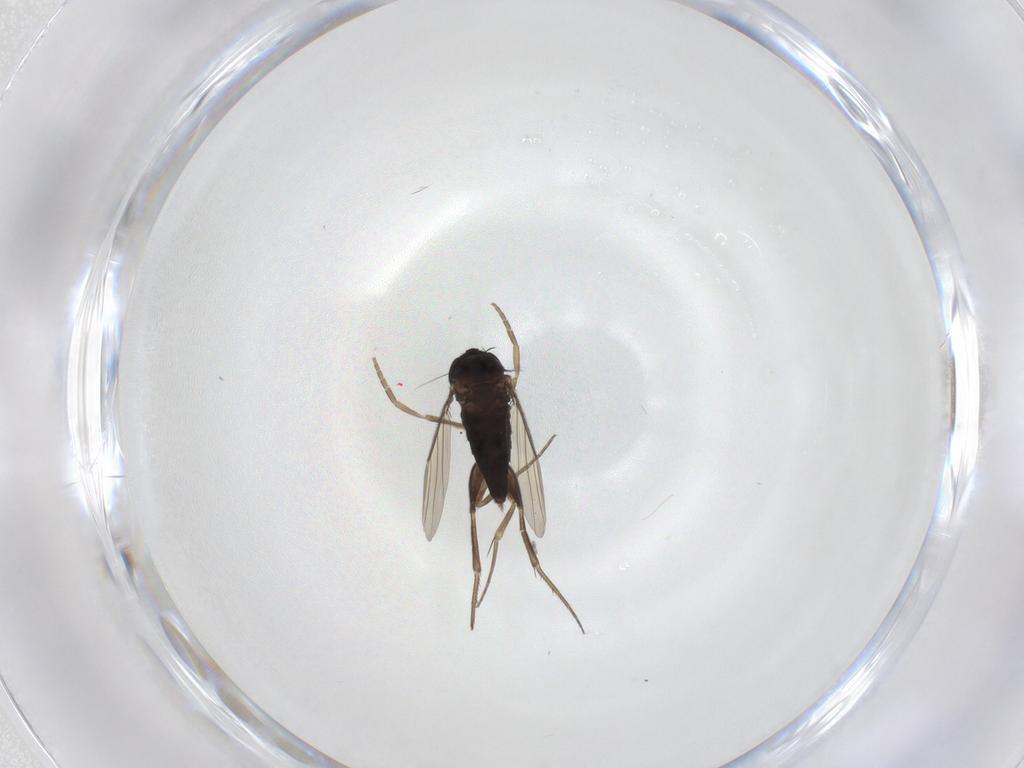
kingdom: Animalia
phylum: Arthropoda
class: Insecta
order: Diptera
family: Phoridae
